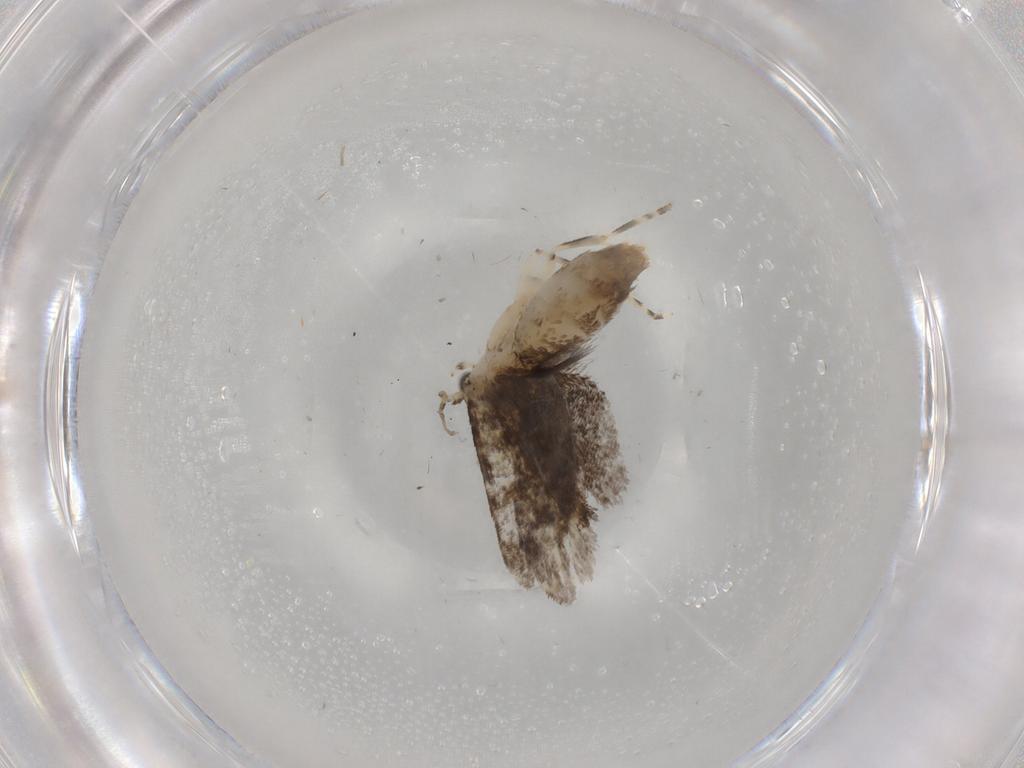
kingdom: Animalia
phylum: Arthropoda
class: Insecta
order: Lepidoptera
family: Tineidae
